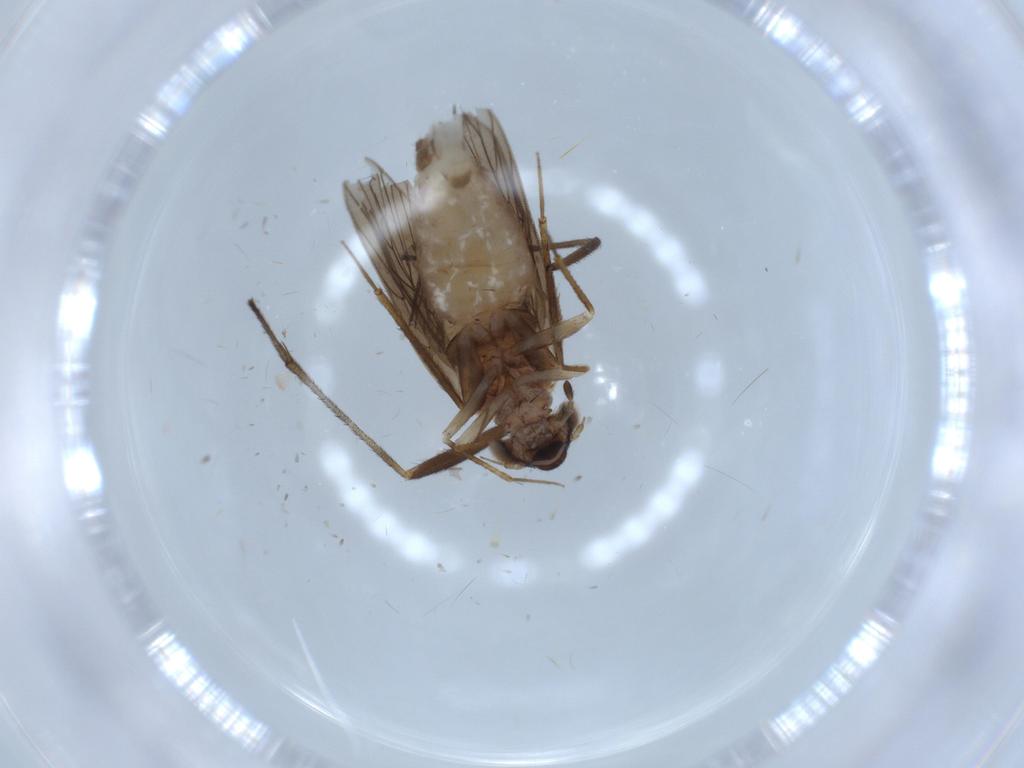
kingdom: Animalia
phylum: Arthropoda
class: Insecta
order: Psocodea
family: Lepidopsocidae
